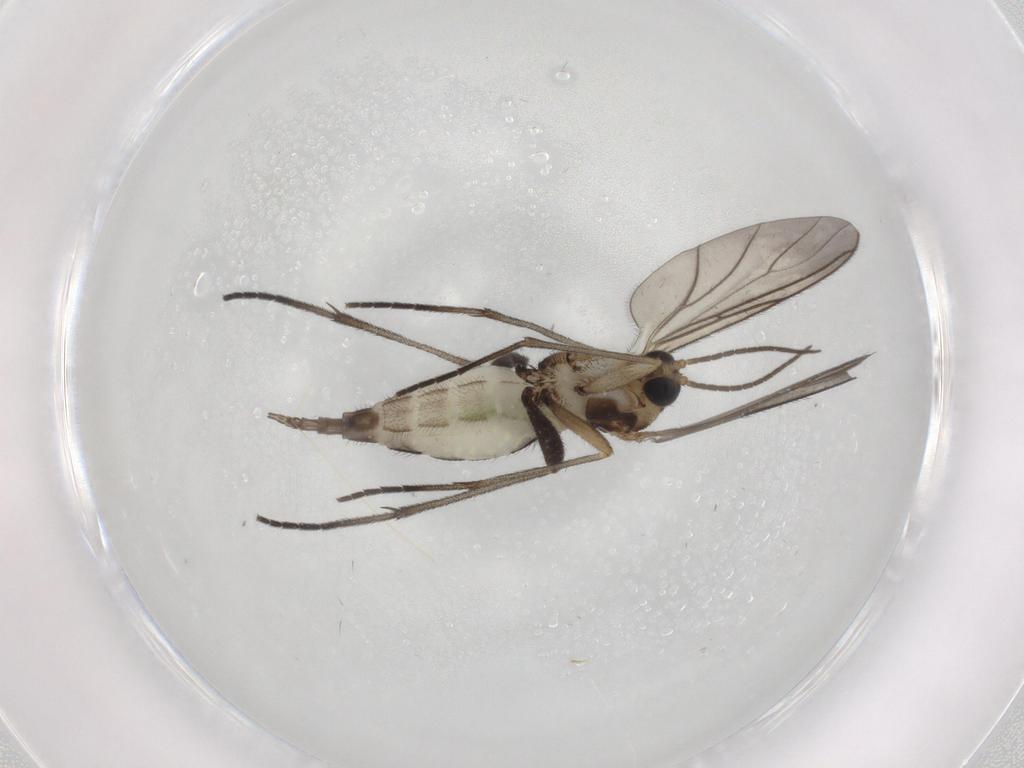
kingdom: Animalia
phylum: Arthropoda
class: Insecta
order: Diptera
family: Sciaridae
